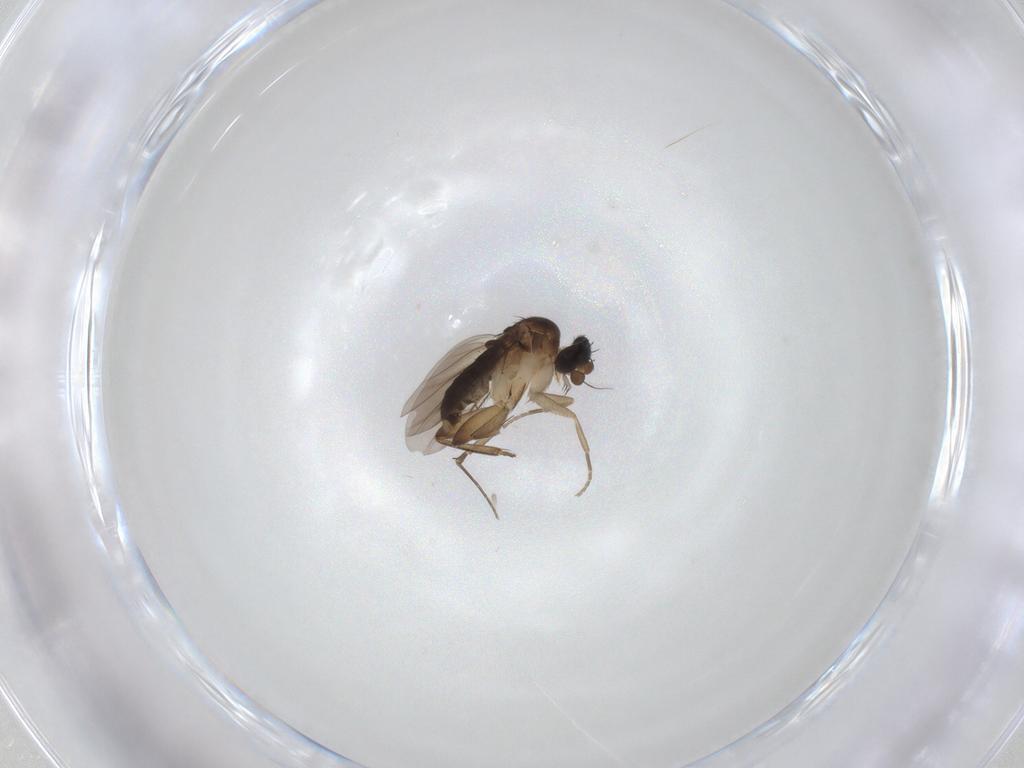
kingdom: Animalia
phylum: Arthropoda
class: Insecta
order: Diptera
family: Phoridae
